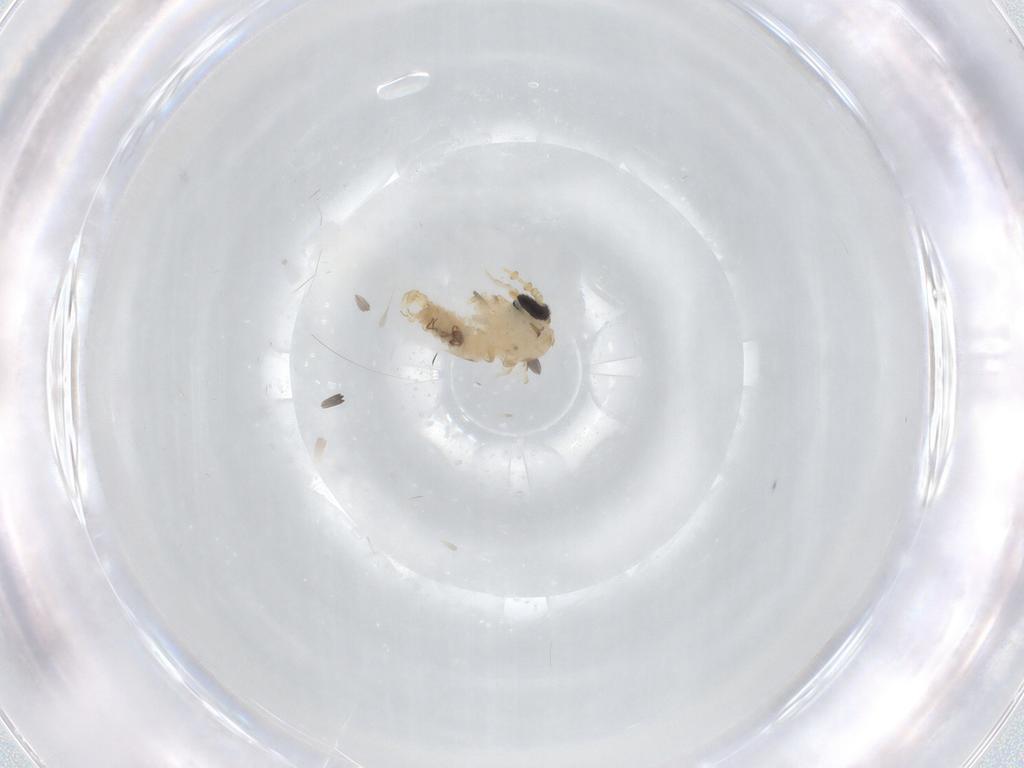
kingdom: Animalia
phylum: Arthropoda
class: Insecta
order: Diptera
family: Psychodidae
